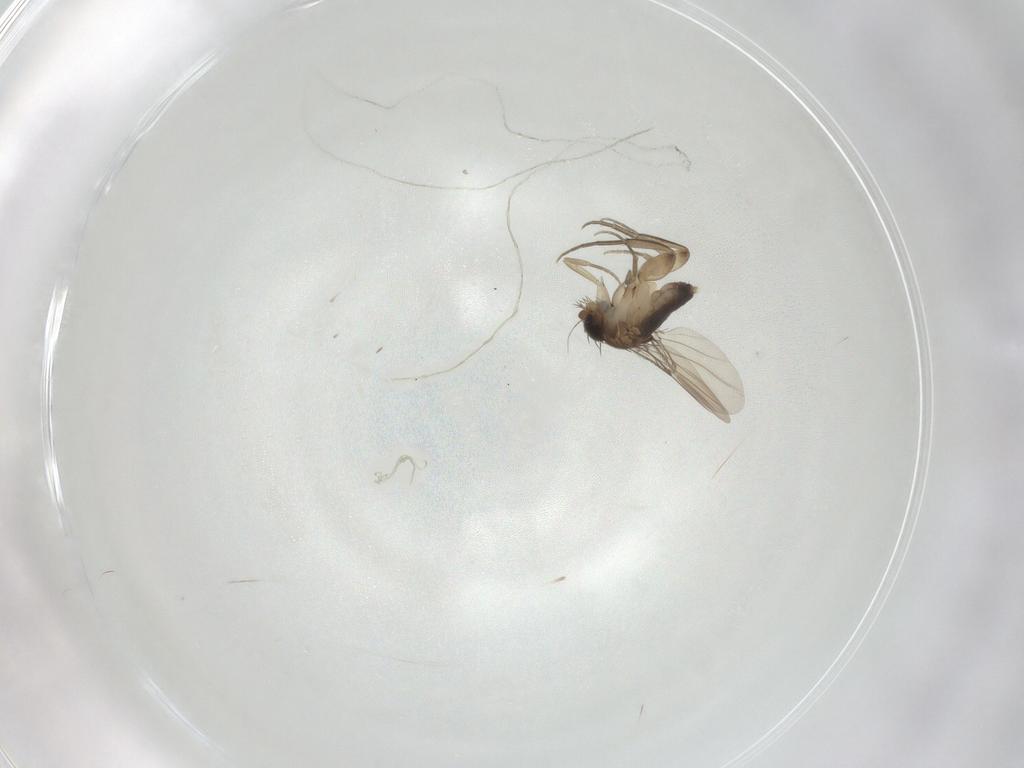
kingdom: Animalia
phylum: Arthropoda
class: Insecta
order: Diptera
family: Phoridae
